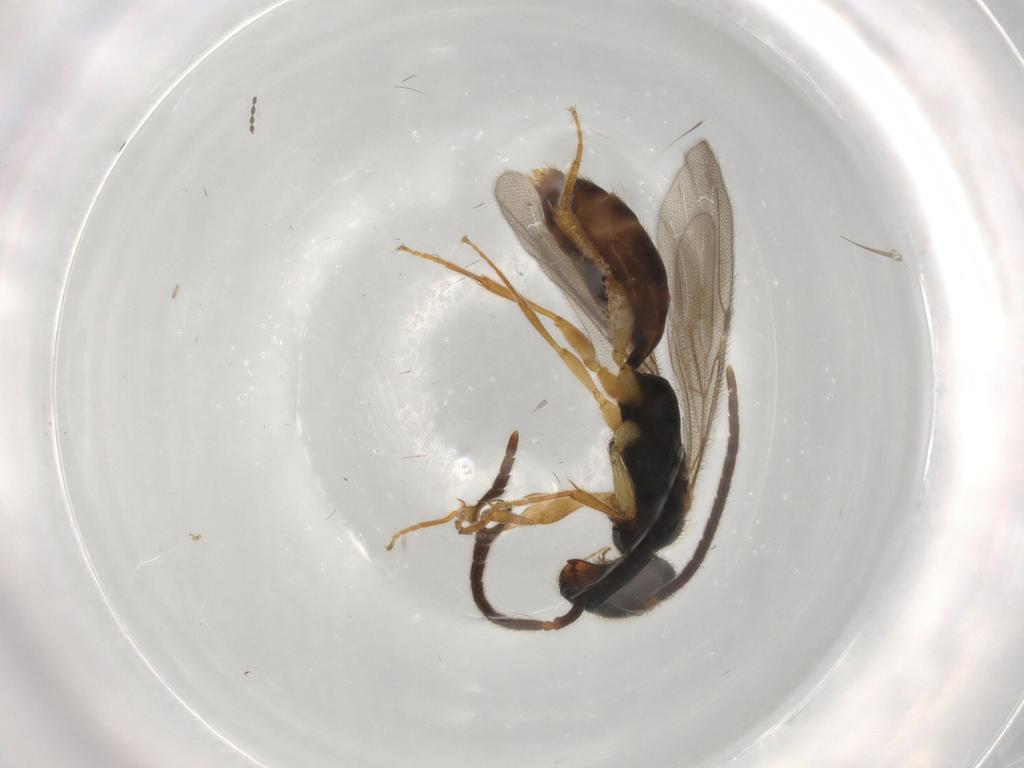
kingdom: Animalia
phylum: Arthropoda
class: Insecta
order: Hymenoptera
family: Bethylidae
